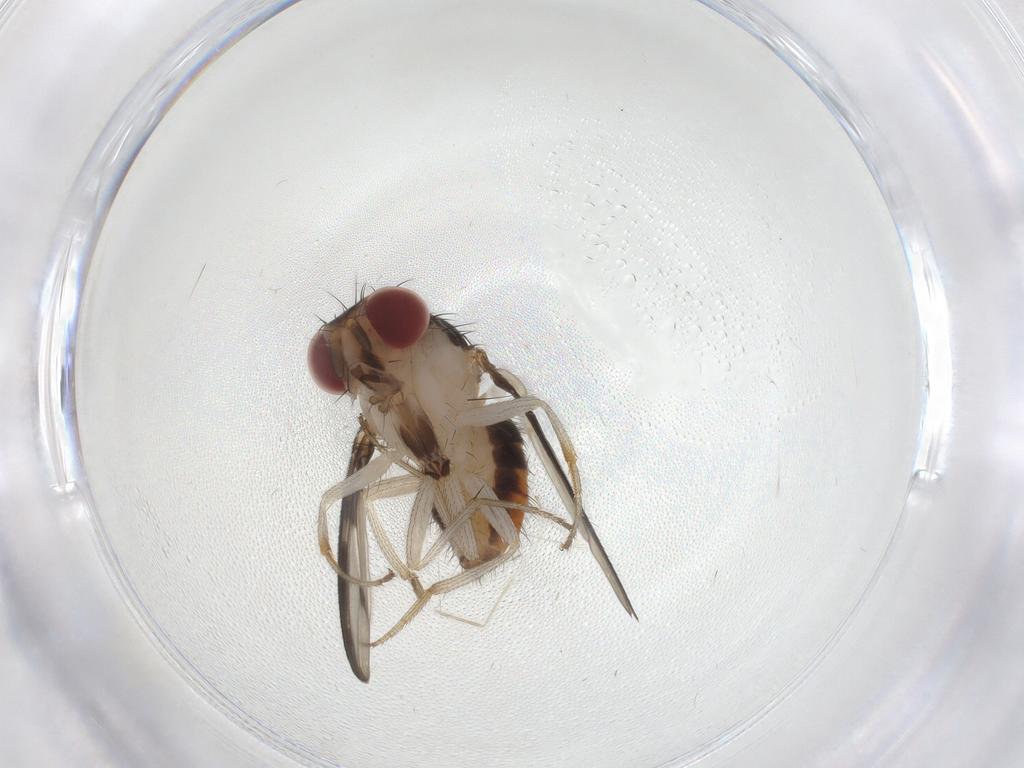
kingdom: Animalia
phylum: Arthropoda
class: Insecta
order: Diptera
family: Drosophilidae
